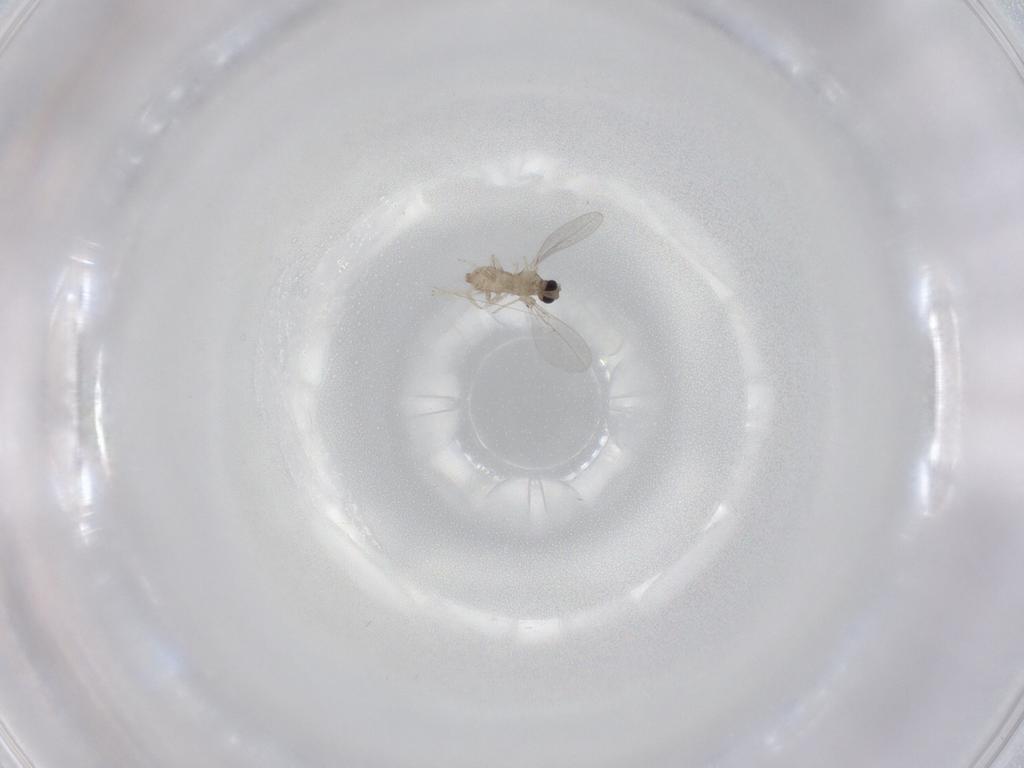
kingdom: Animalia
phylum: Arthropoda
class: Insecta
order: Diptera
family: Cecidomyiidae
